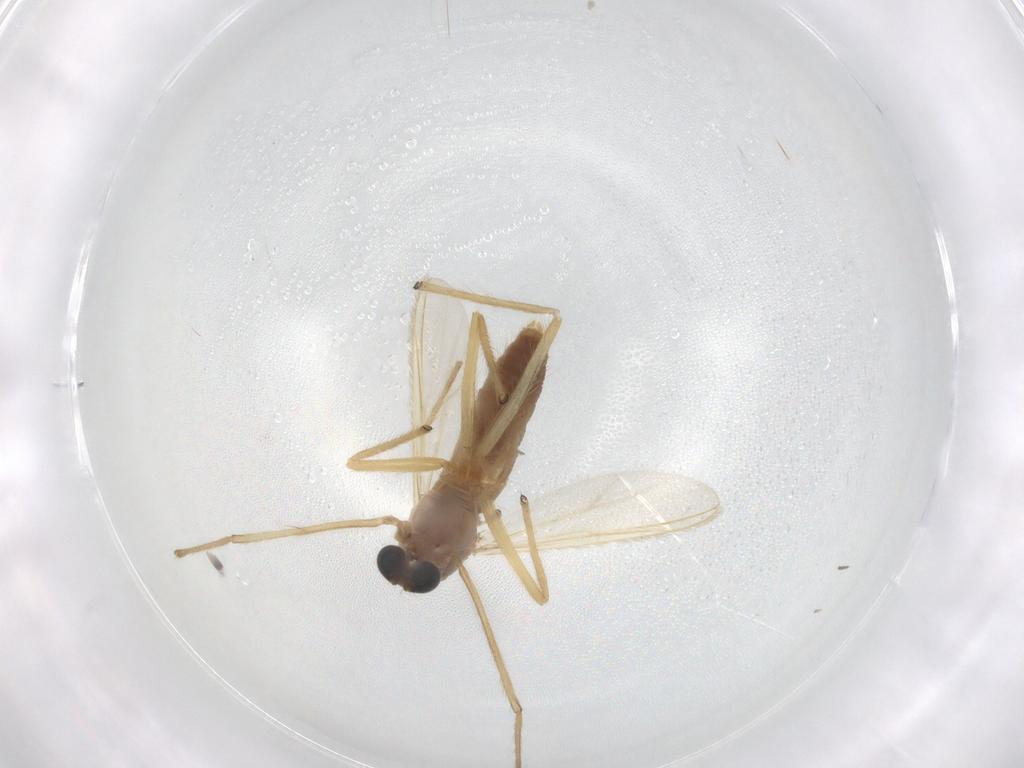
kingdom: Animalia
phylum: Arthropoda
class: Insecta
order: Diptera
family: Chironomidae
